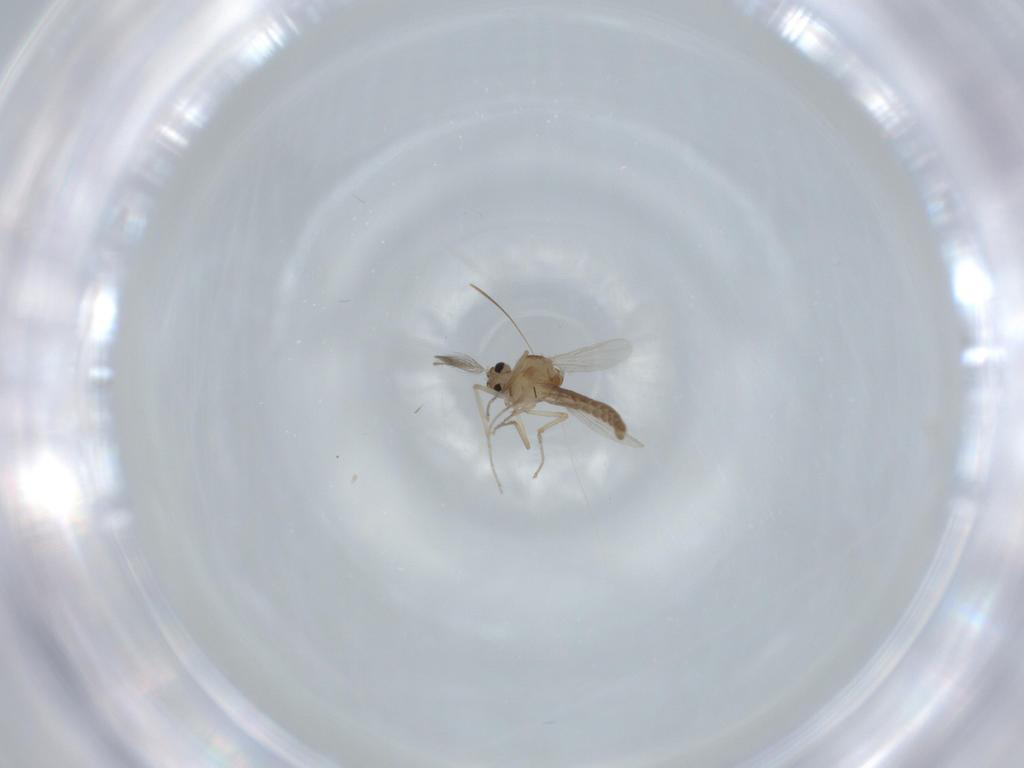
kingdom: Animalia
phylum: Arthropoda
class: Insecta
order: Diptera
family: Ceratopogonidae
